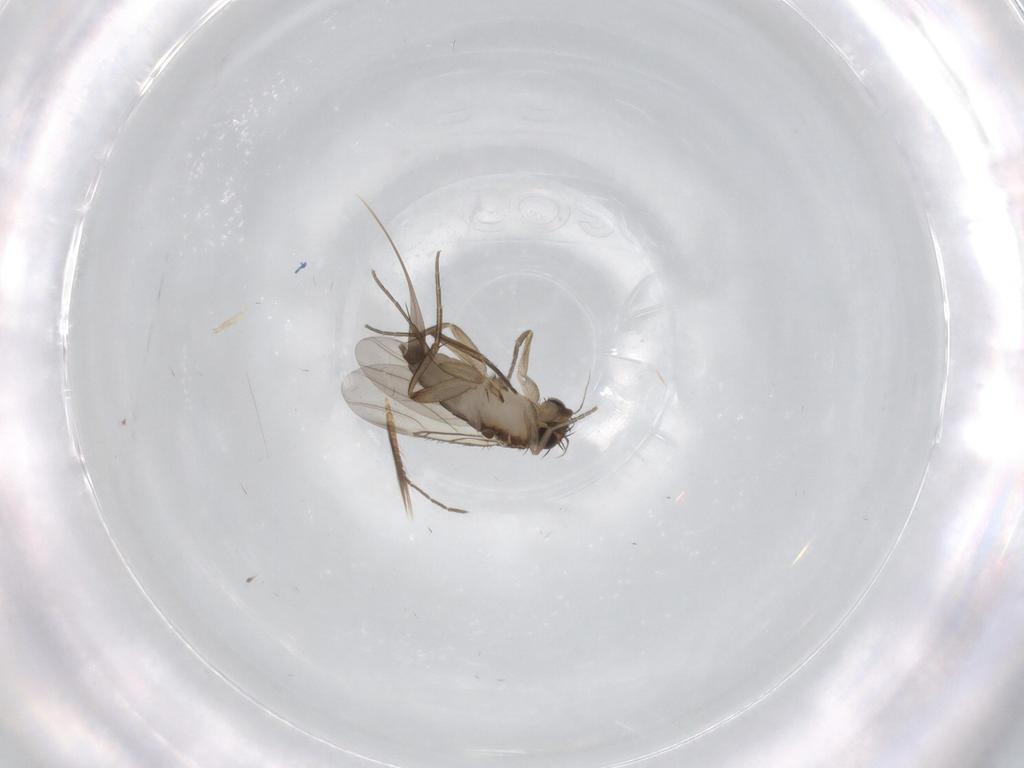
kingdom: Animalia
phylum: Arthropoda
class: Insecta
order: Diptera
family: Phoridae
